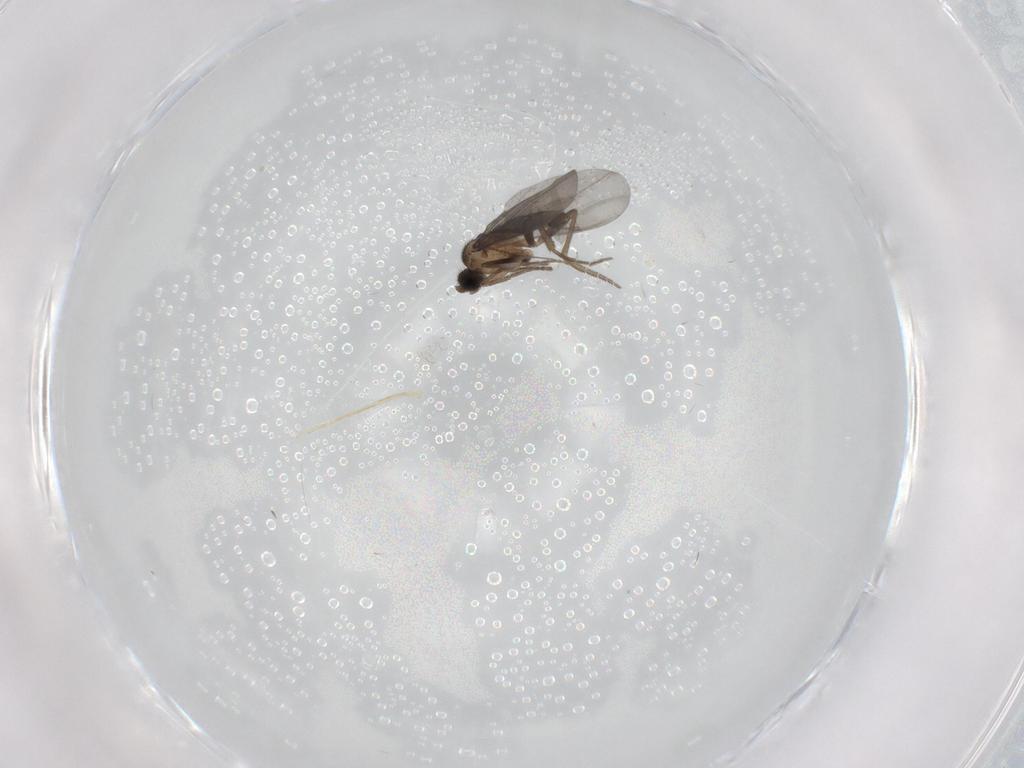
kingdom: Animalia
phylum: Arthropoda
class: Insecta
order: Diptera
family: Phoridae
